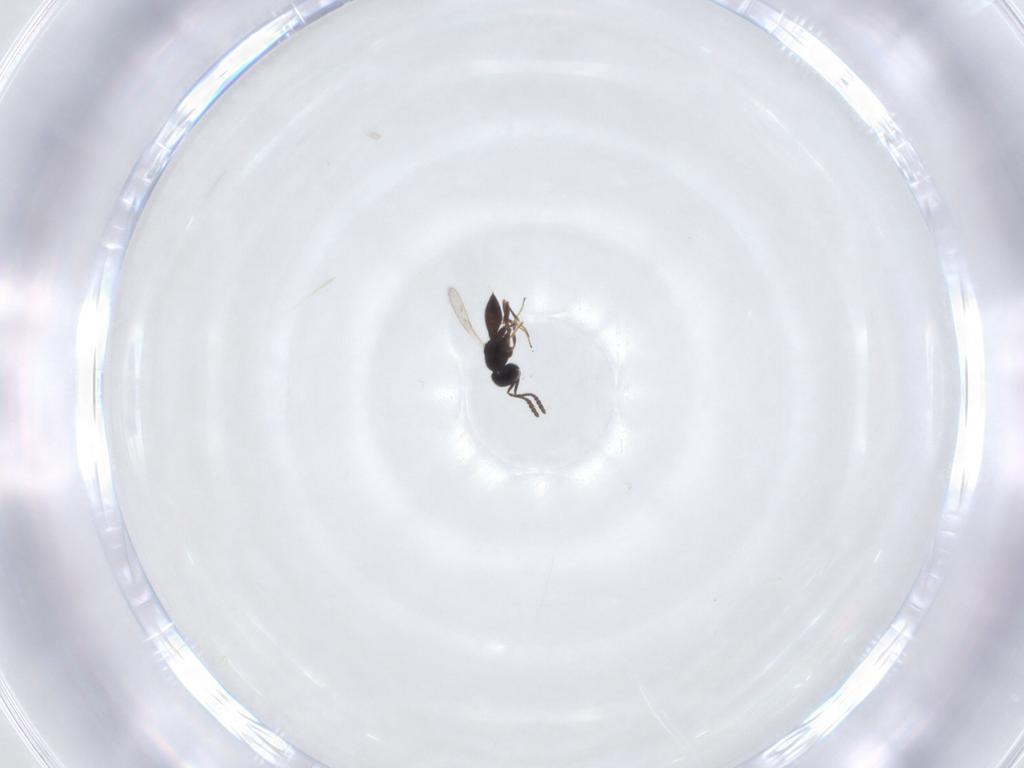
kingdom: Animalia
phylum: Arthropoda
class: Insecta
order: Hymenoptera
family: Scelionidae
